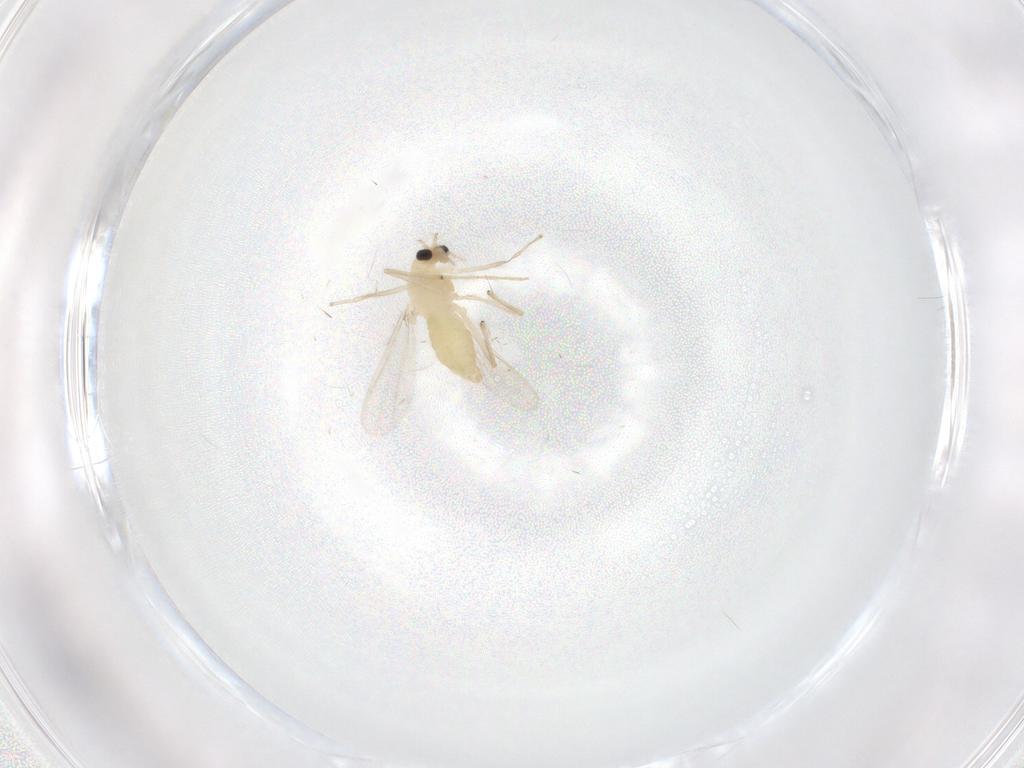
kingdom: Animalia
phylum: Arthropoda
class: Insecta
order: Diptera
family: Chironomidae
